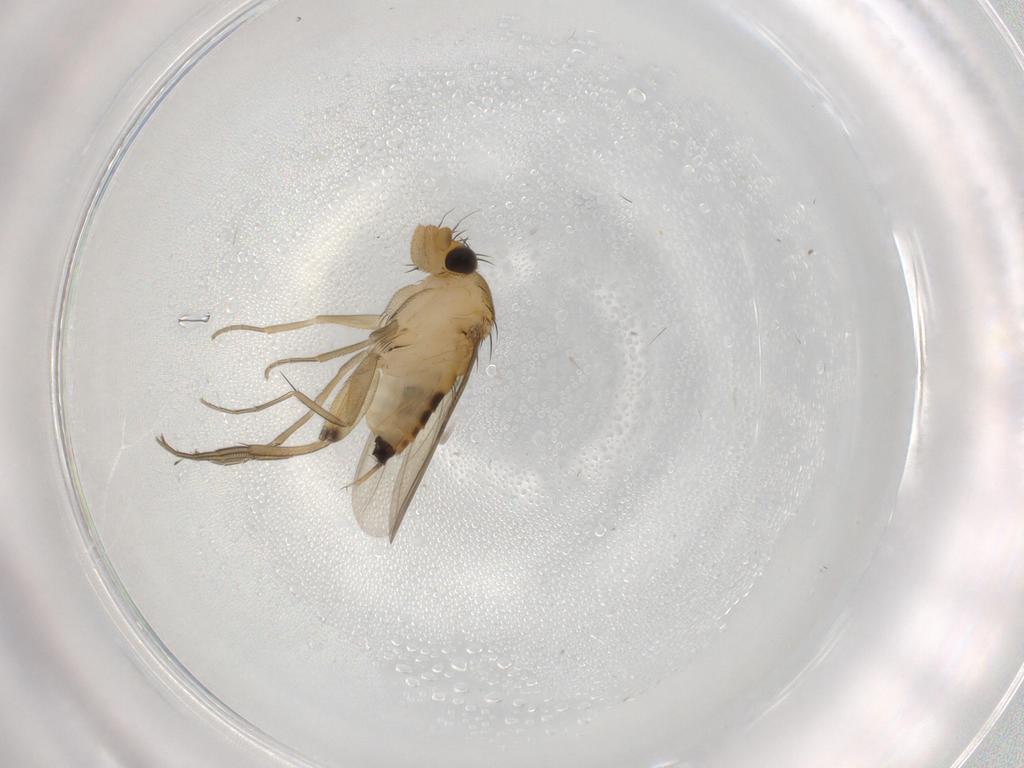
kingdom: Animalia
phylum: Arthropoda
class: Insecta
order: Diptera
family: Phoridae
